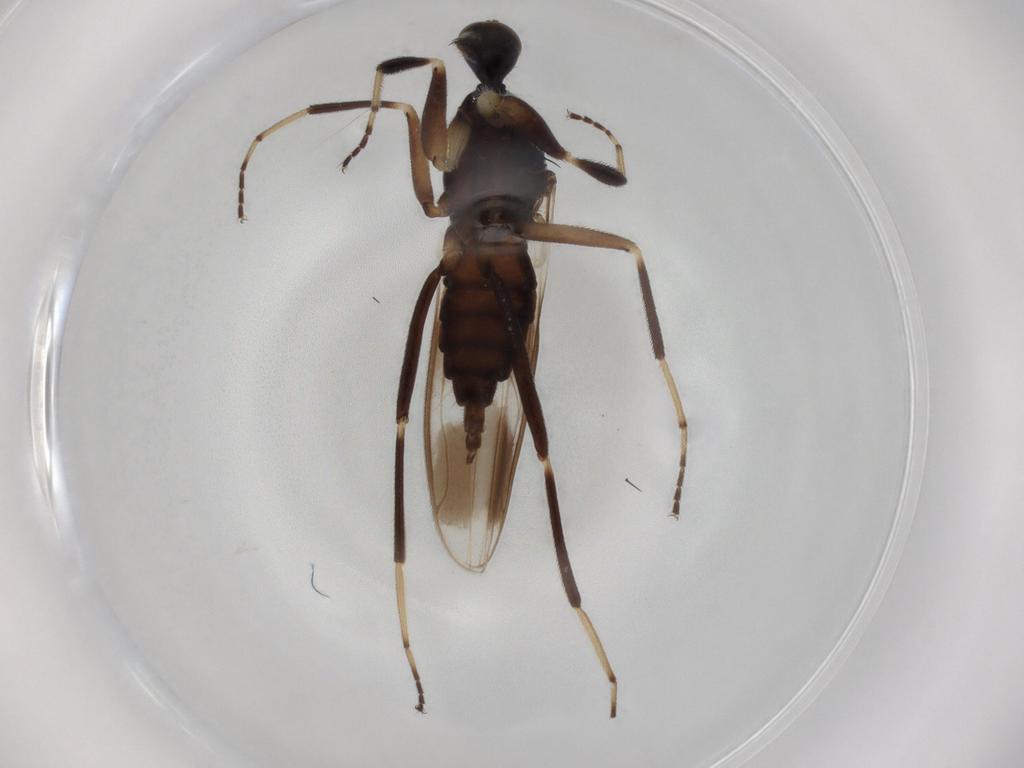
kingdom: Animalia
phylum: Arthropoda
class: Insecta
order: Diptera
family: Hybotidae
